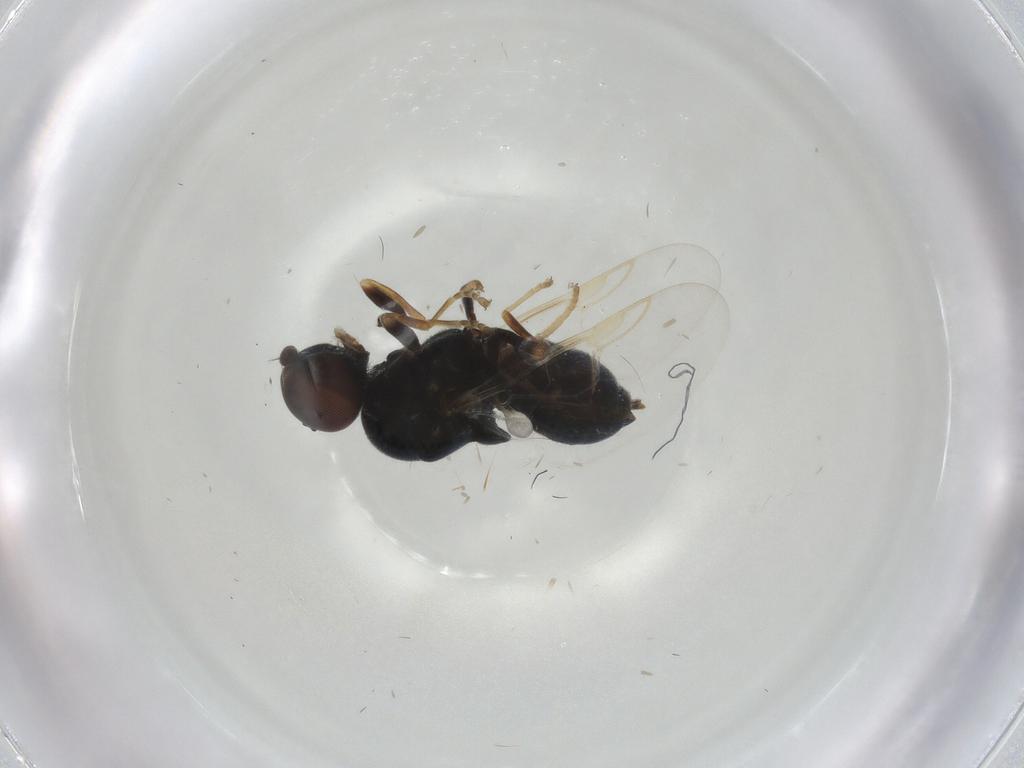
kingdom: Animalia
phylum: Arthropoda
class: Insecta
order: Diptera
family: Stratiomyidae
